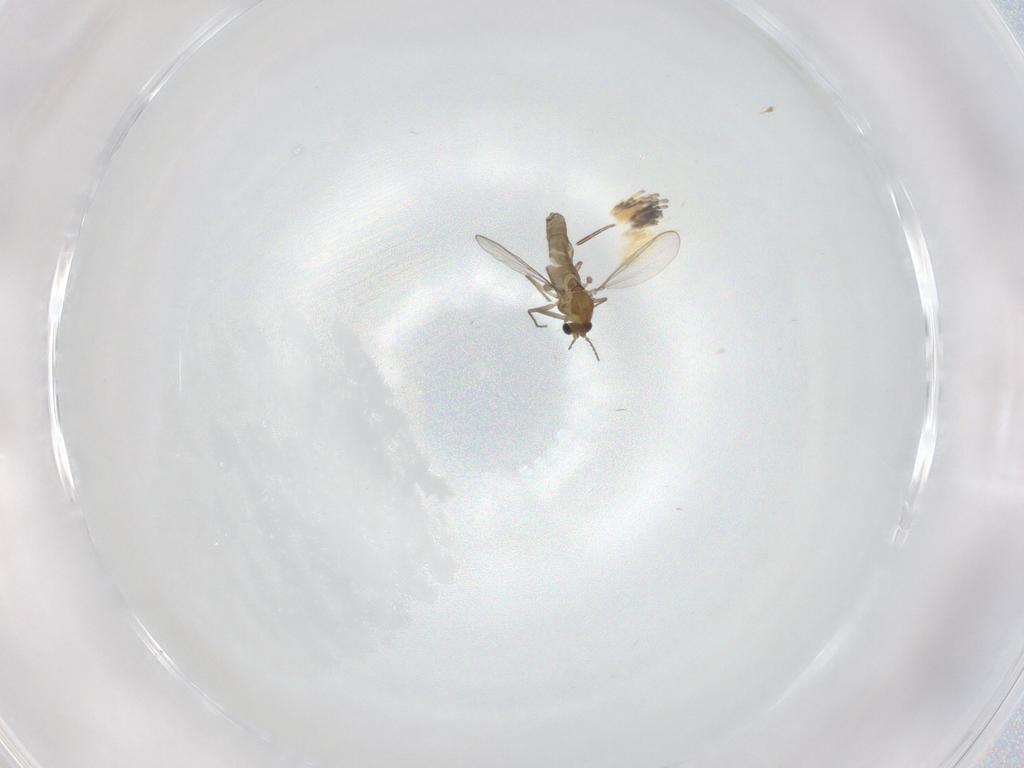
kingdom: Animalia
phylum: Arthropoda
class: Insecta
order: Diptera
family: Chironomidae
